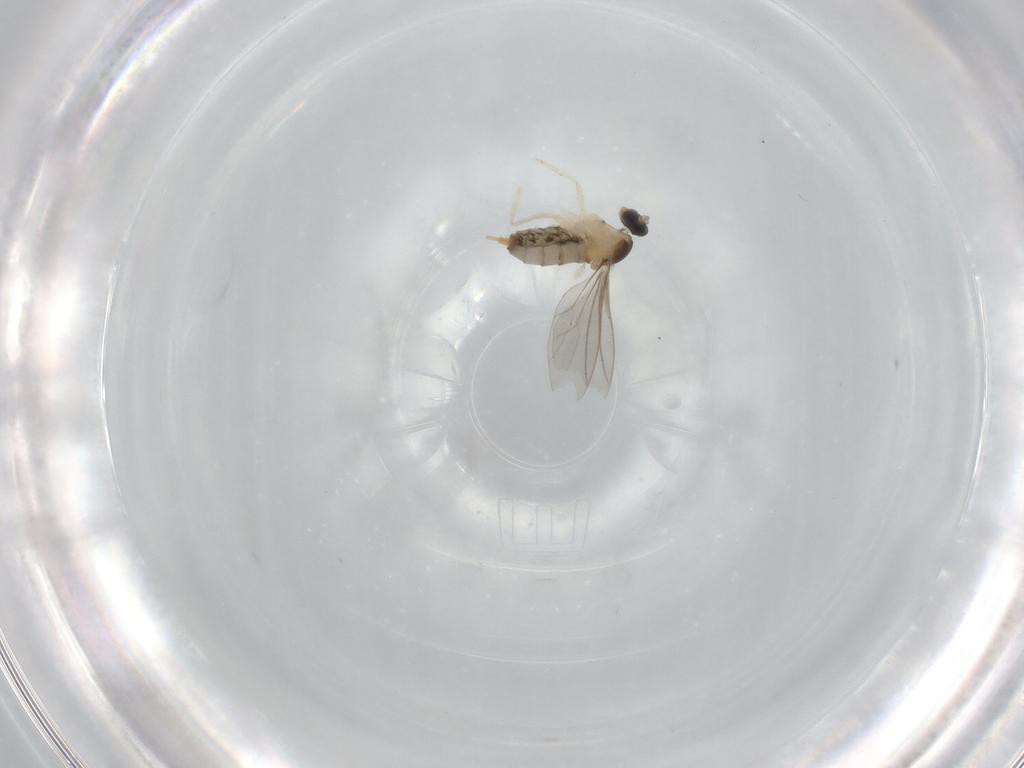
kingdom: Animalia
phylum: Arthropoda
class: Insecta
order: Diptera
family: Cecidomyiidae
